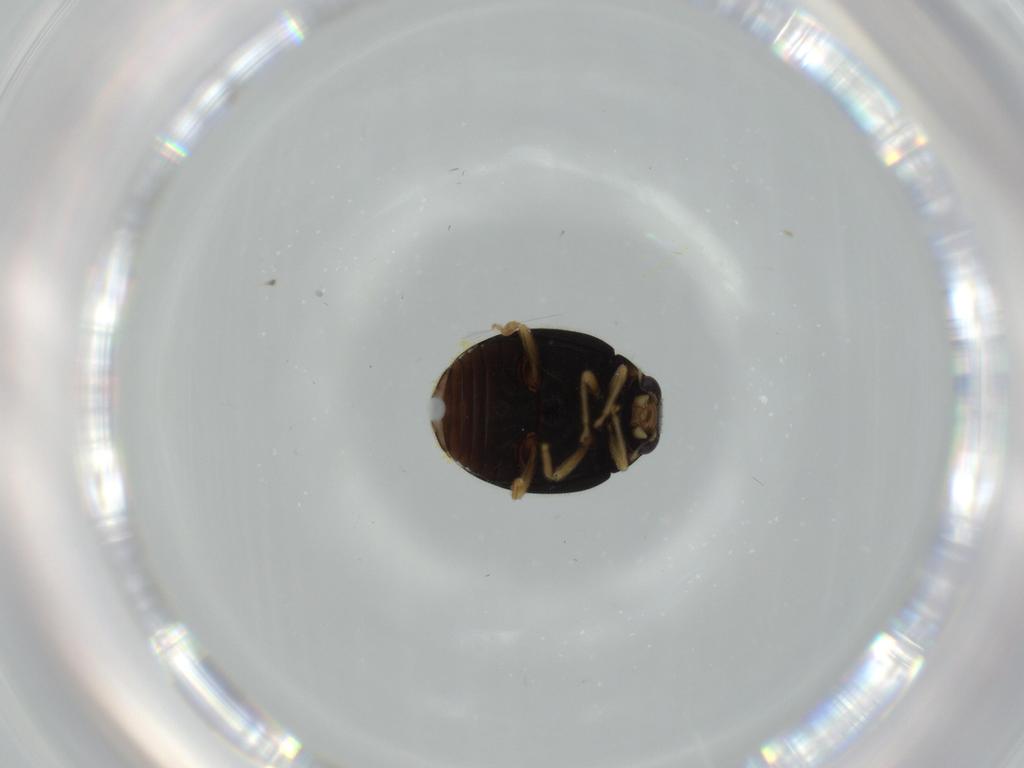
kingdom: Animalia
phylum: Arthropoda
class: Insecta
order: Coleoptera
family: Coccinellidae
